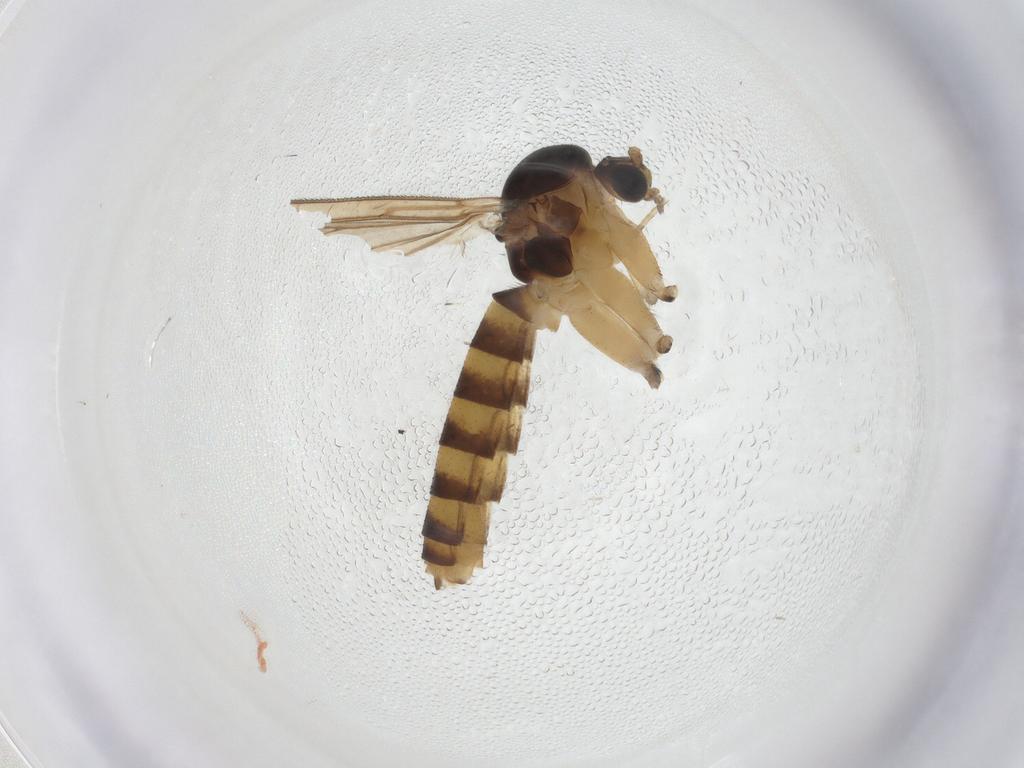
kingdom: Animalia
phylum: Arthropoda
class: Insecta
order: Diptera
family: Mycetophilidae
